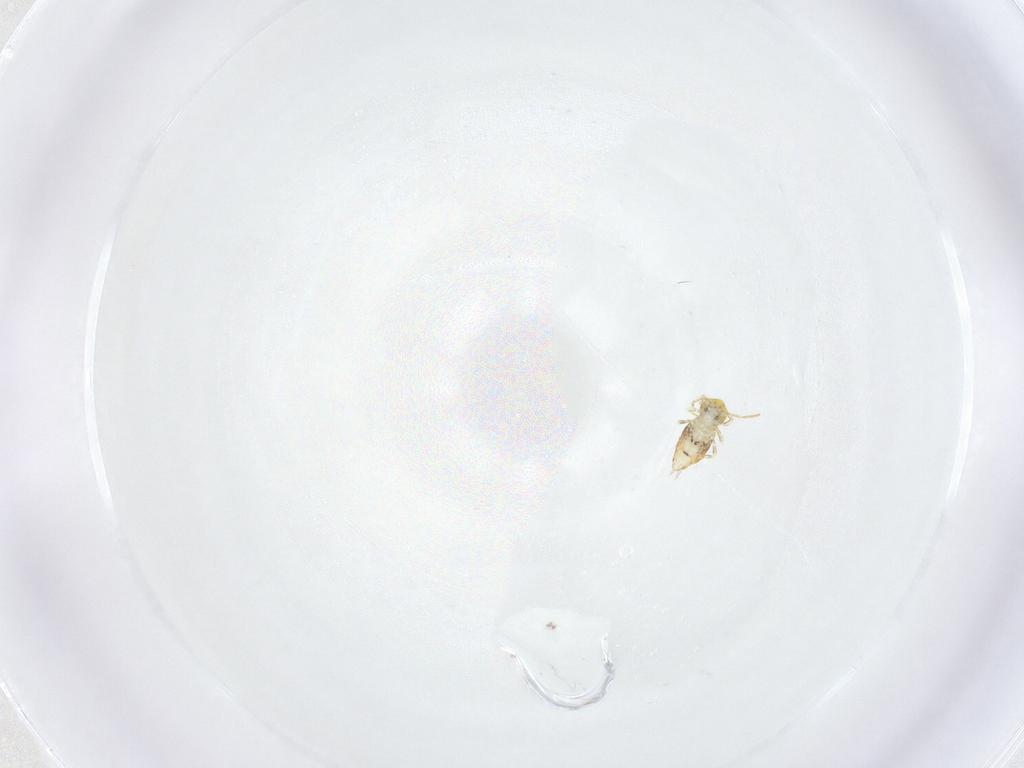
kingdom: Animalia
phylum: Arthropoda
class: Collembola
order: Symphypleona
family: Katiannidae
